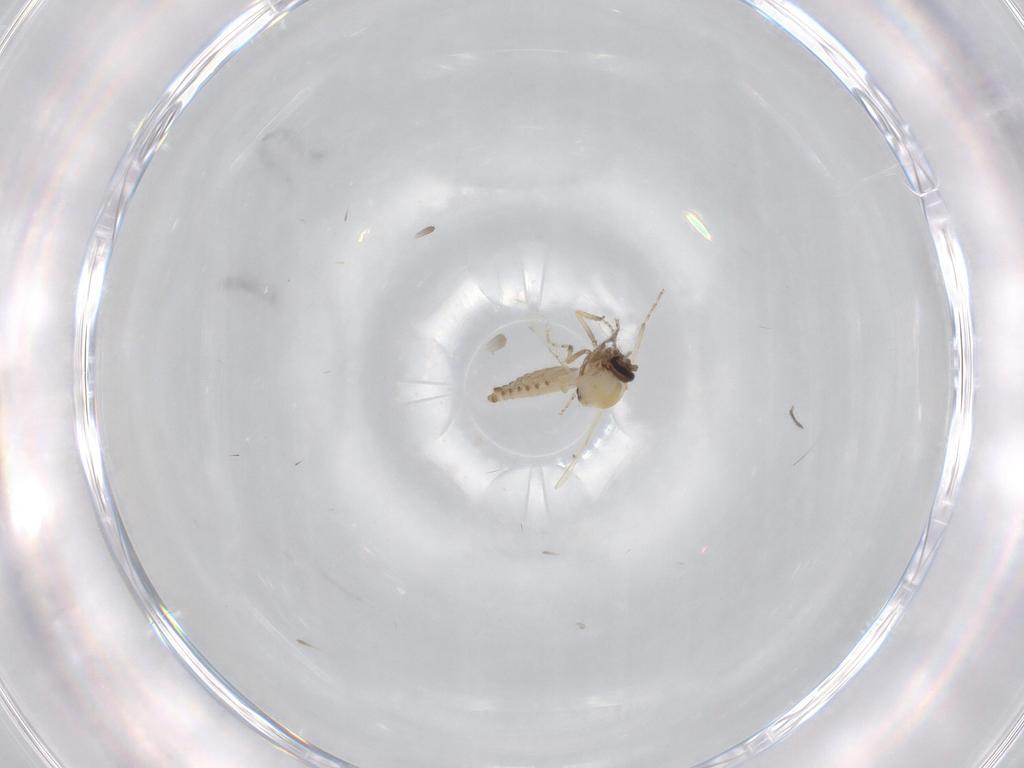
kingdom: Animalia
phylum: Arthropoda
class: Insecta
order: Diptera
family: Ceratopogonidae
